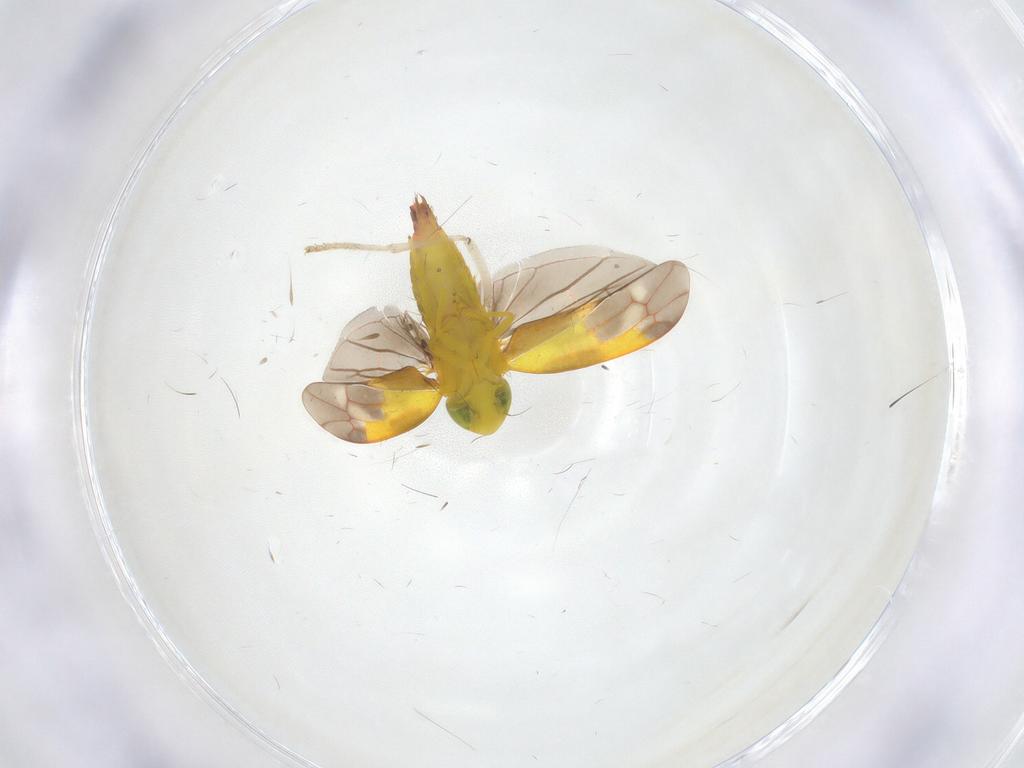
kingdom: Animalia
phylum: Arthropoda
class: Insecta
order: Hemiptera
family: Cicadellidae
